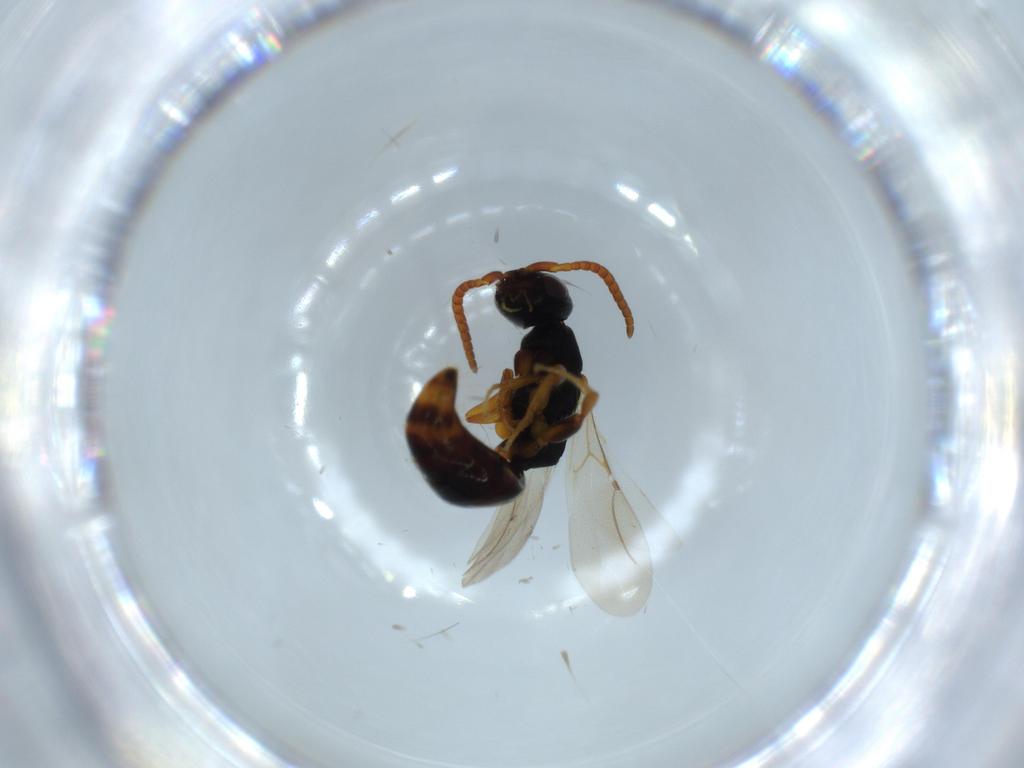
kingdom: Animalia
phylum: Arthropoda
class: Insecta
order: Hymenoptera
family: Bethylidae
